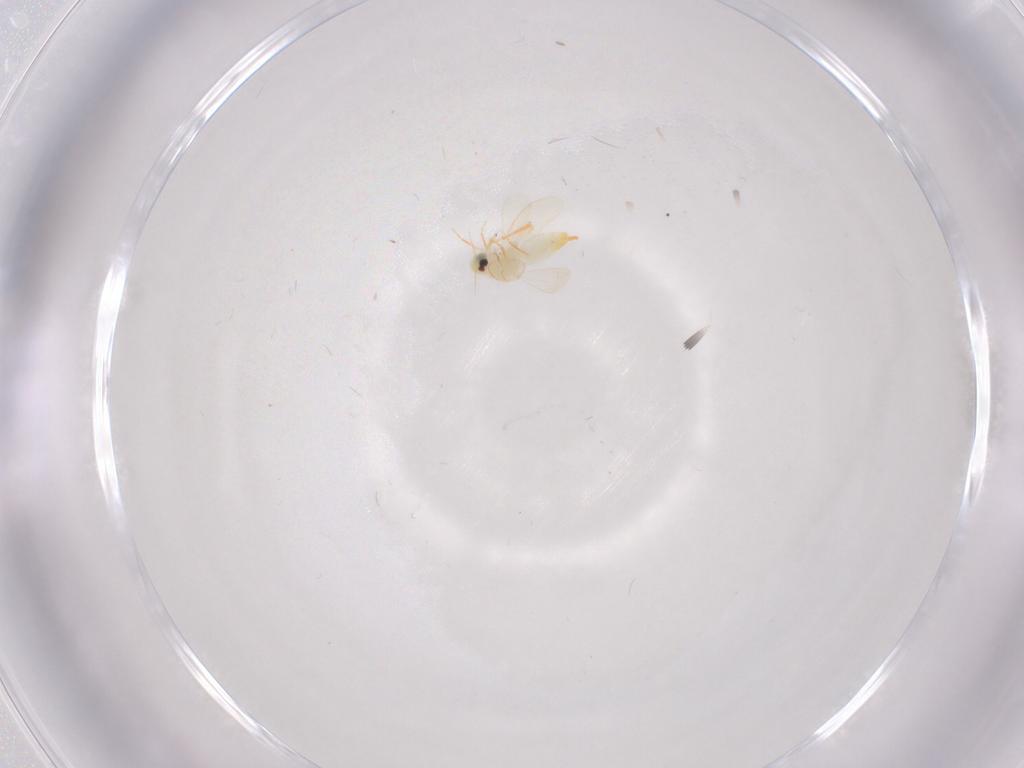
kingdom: Animalia
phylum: Arthropoda
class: Insecta
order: Hemiptera
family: Aleyrodidae
